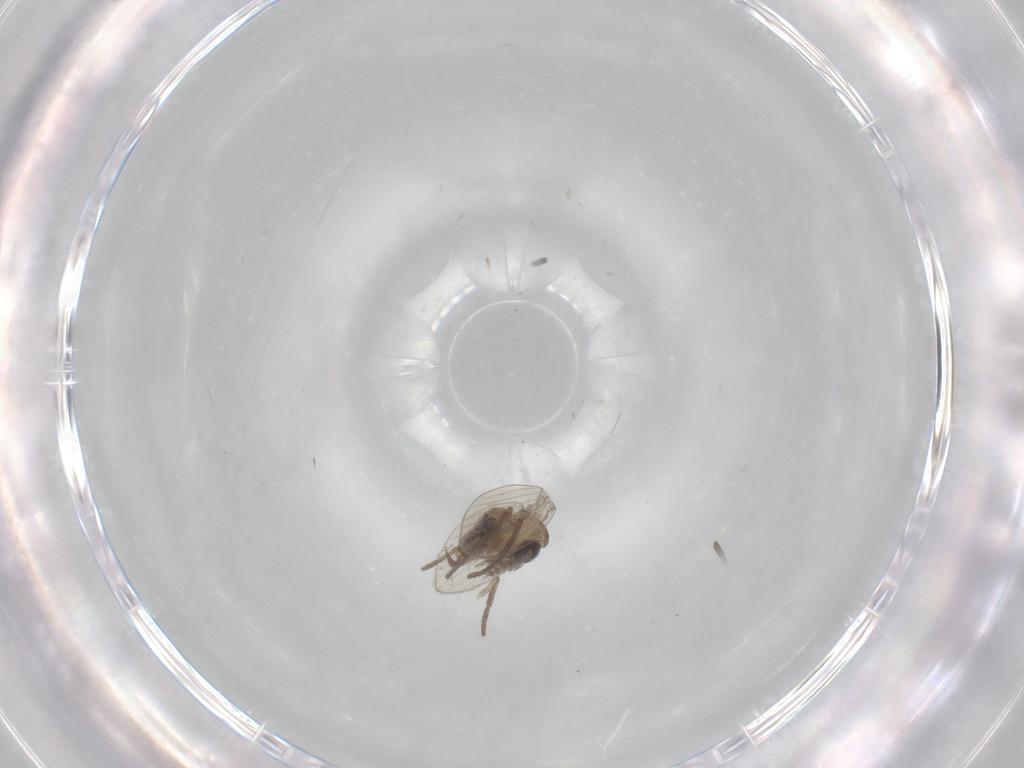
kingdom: Animalia
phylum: Arthropoda
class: Insecta
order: Diptera
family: Psychodidae
